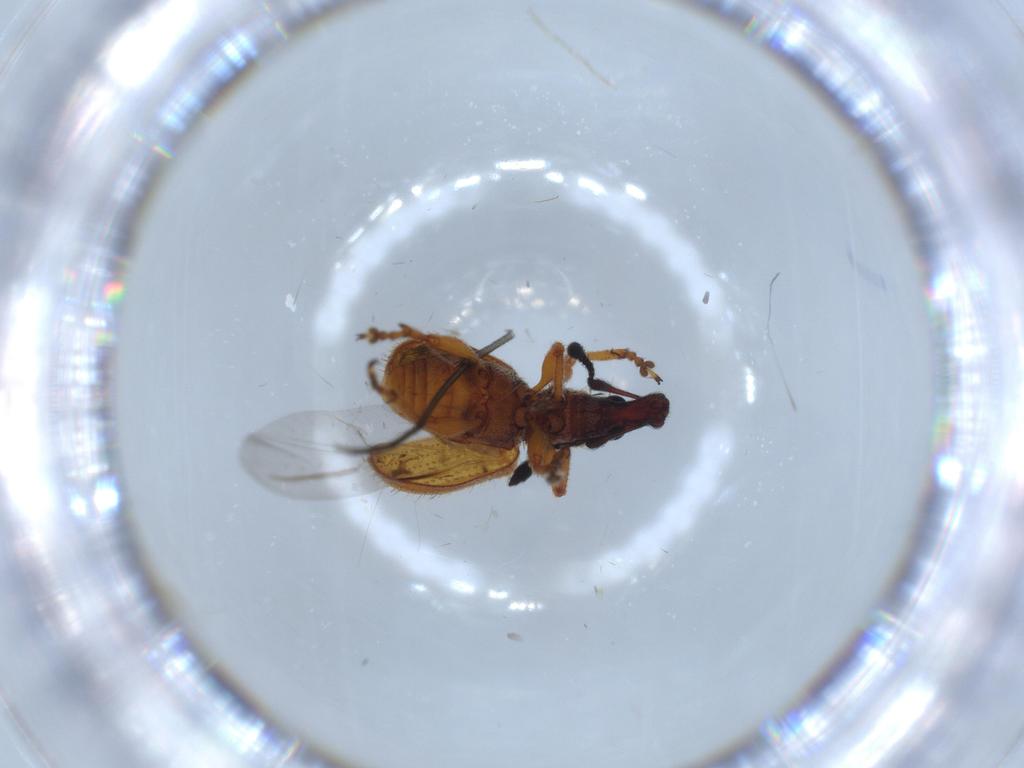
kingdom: Animalia
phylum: Arthropoda
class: Insecta
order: Coleoptera
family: Curculionidae
